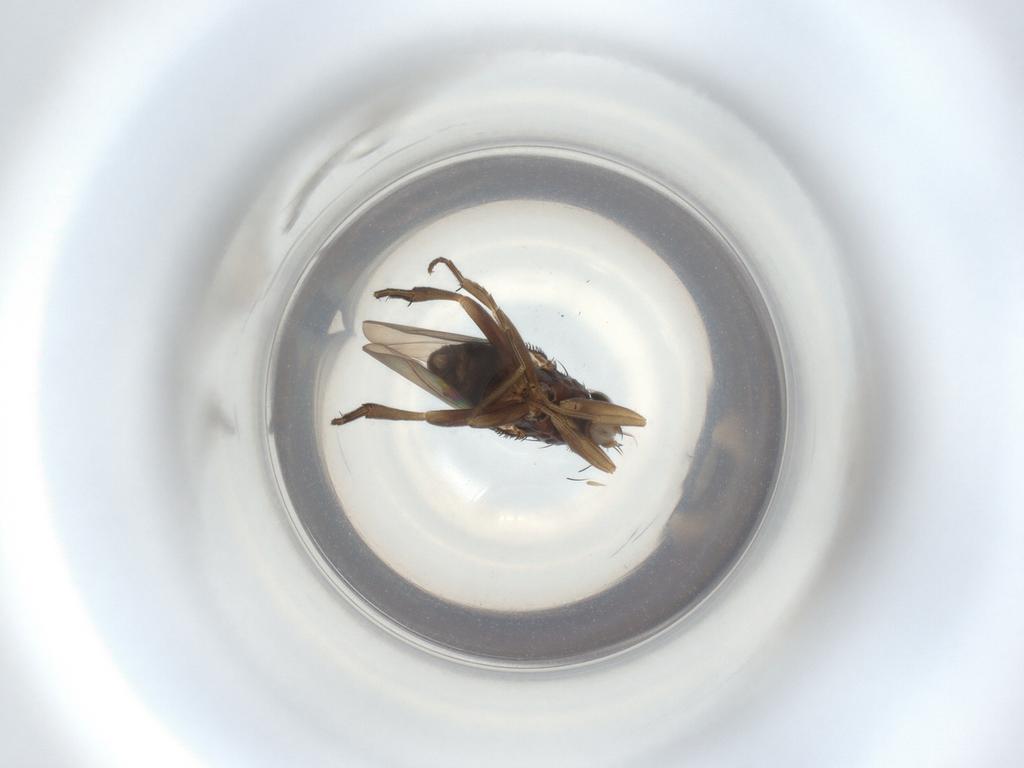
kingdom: Animalia
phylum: Arthropoda
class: Insecta
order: Diptera
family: Phoridae
